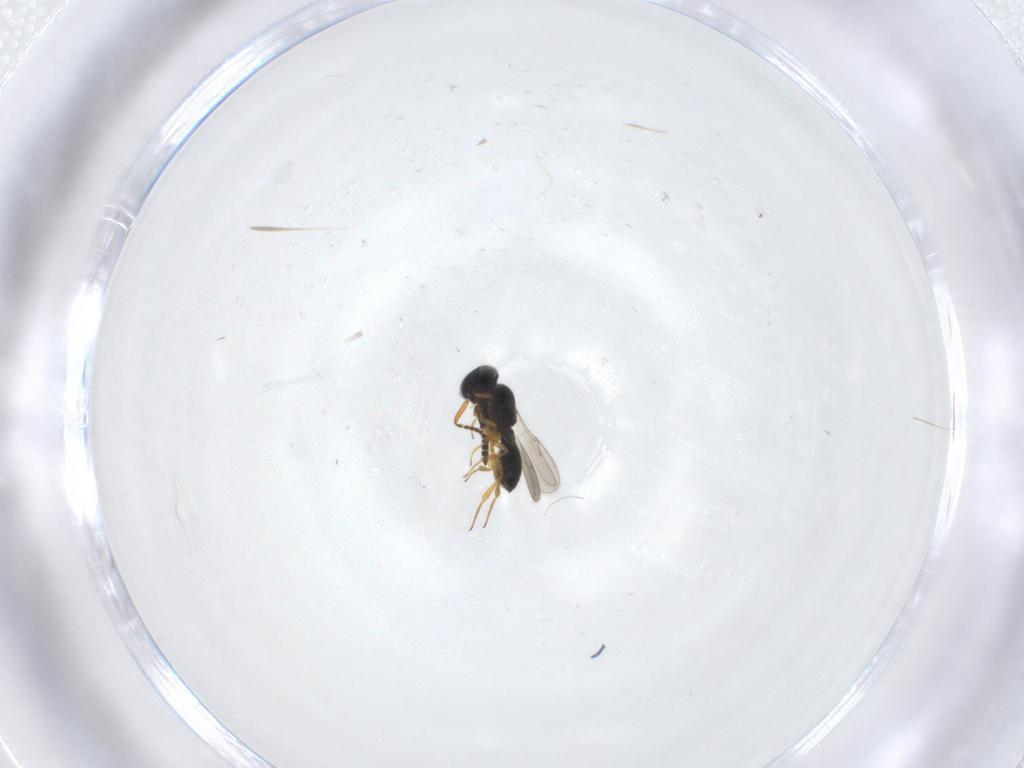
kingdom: Animalia
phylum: Arthropoda
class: Insecta
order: Hymenoptera
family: Scelionidae
